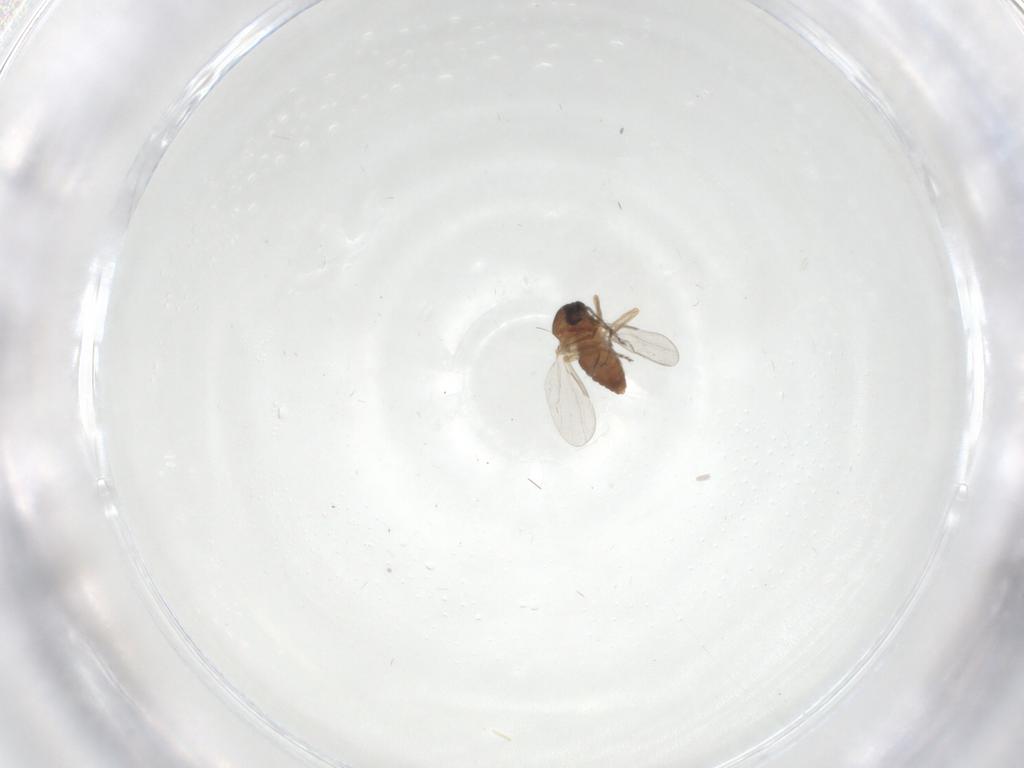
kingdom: Animalia
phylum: Arthropoda
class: Insecta
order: Diptera
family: Ceratopogonidae
